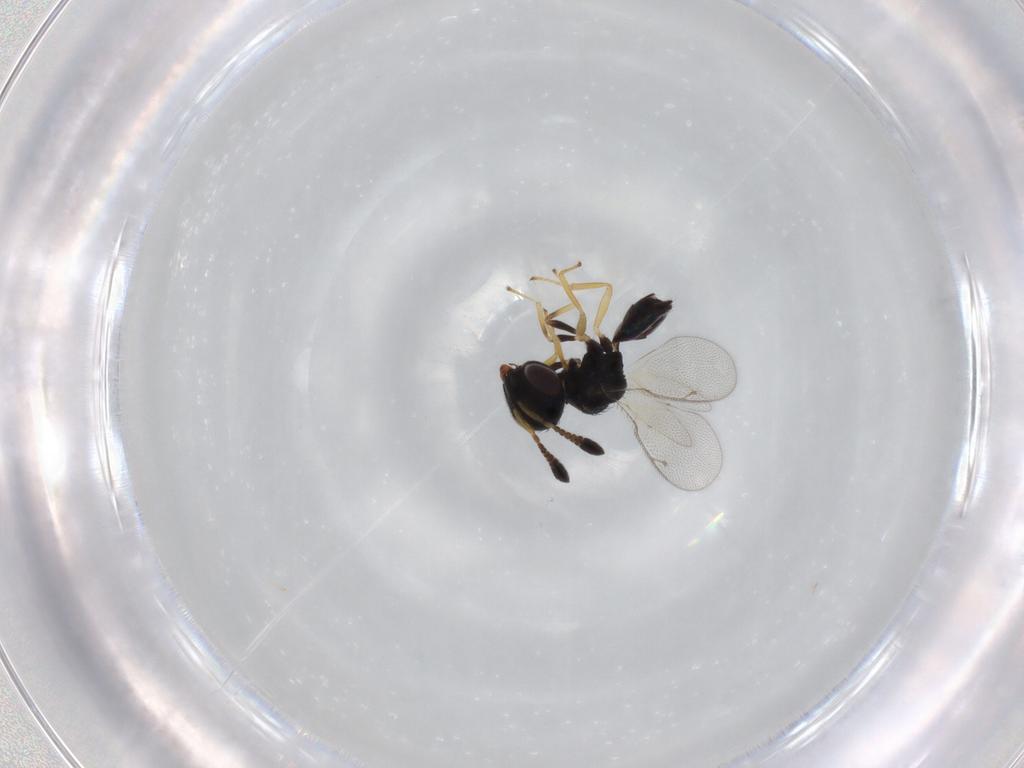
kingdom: Animalia
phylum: Arthropoda
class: Insecta
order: Hymenoptera
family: Pteromalidae
